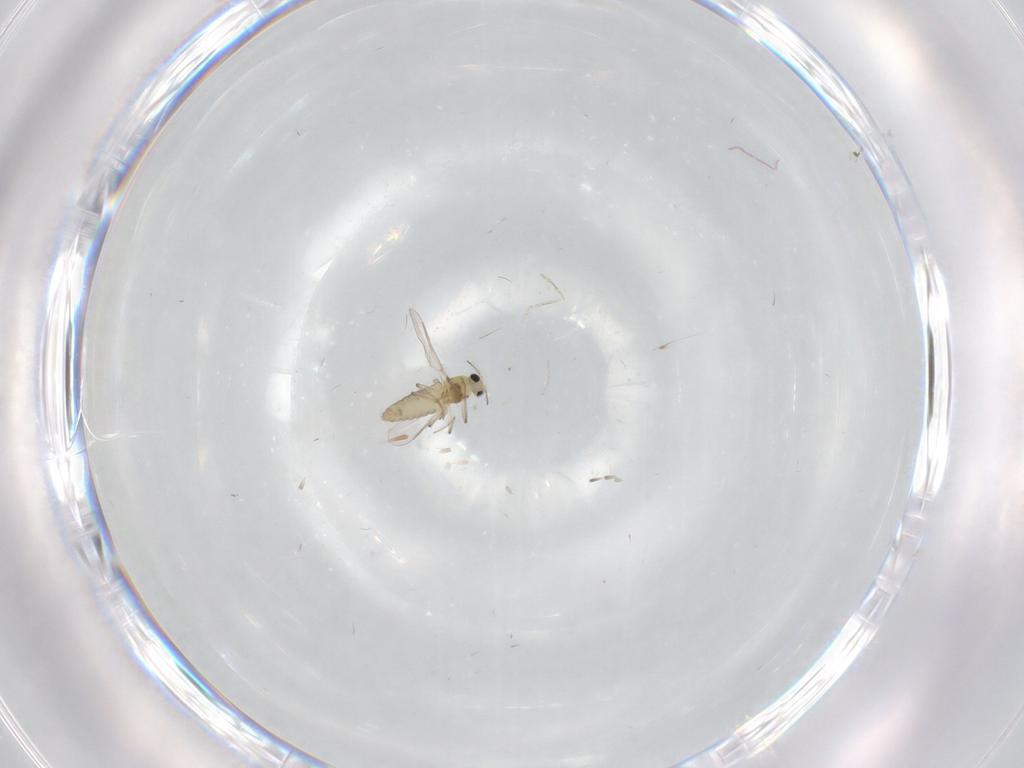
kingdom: Animalia
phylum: Arthropoda
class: Insecta
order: Diptera
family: Chironomidae
